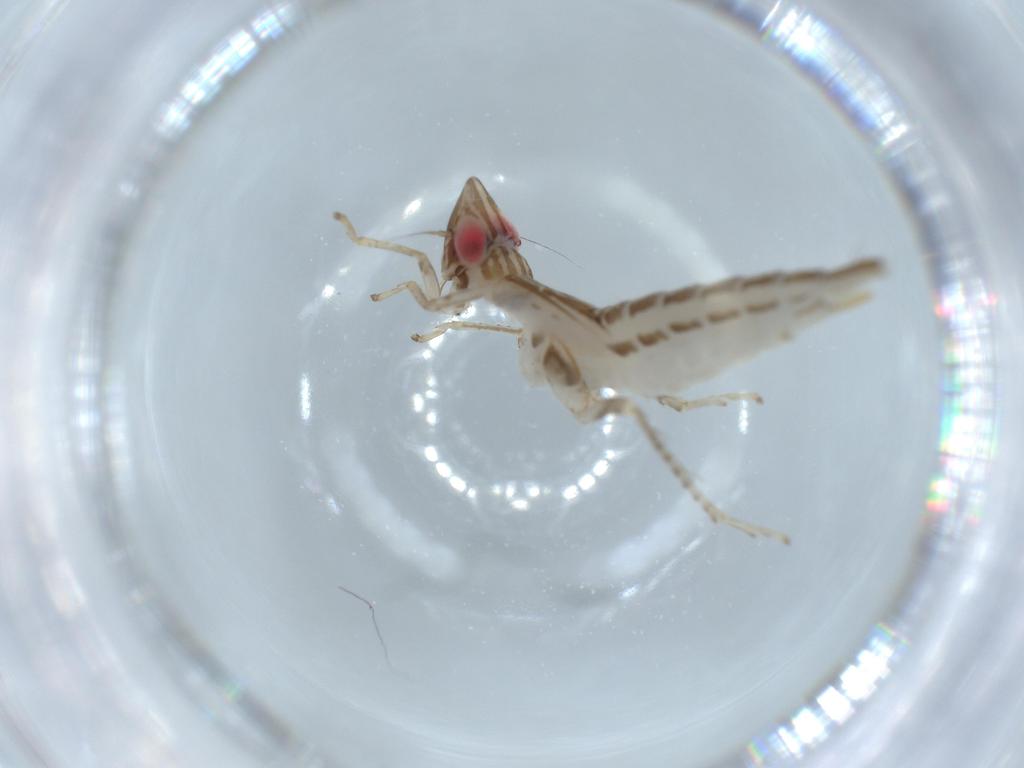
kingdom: Animalia
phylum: Arthropoda
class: Insecta
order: Hemiptera
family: Cicadellidae
